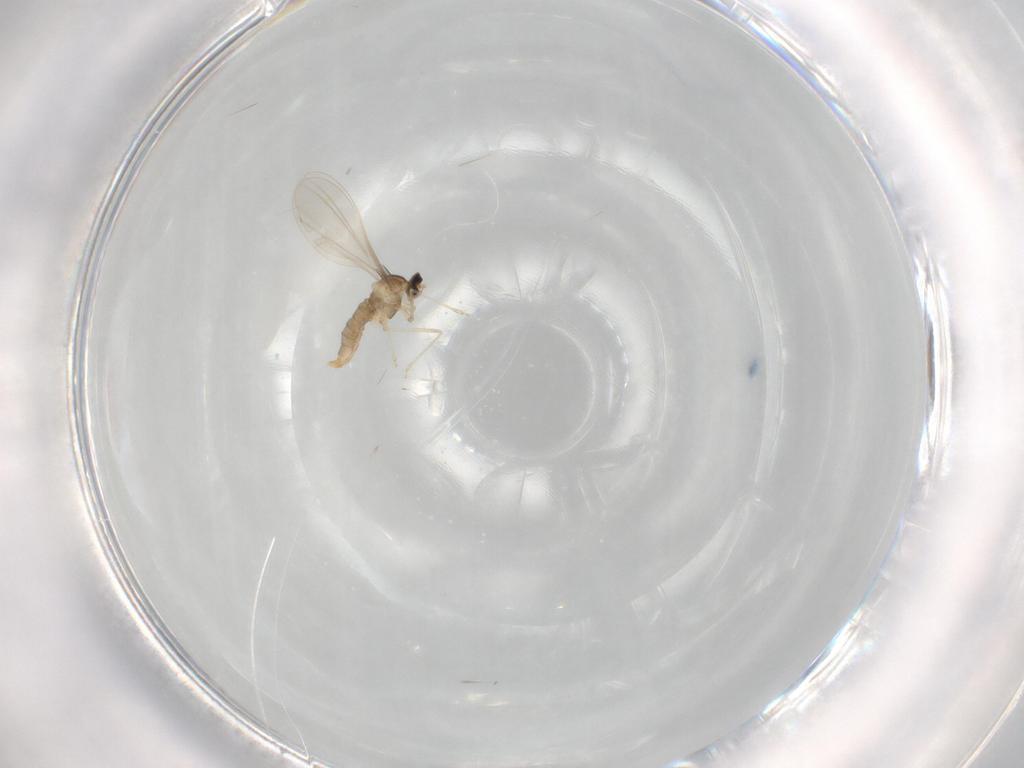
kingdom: Animalia
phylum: Arthropoda
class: Insecta
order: Diptera
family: Cecidomyiidae
